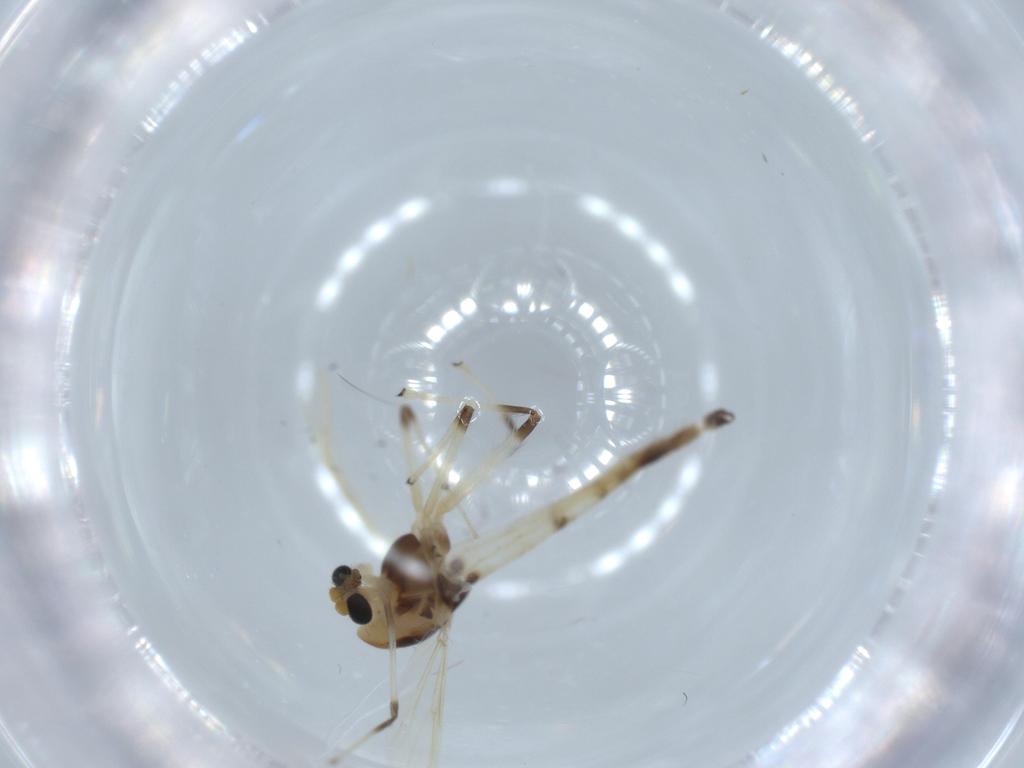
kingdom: Animalia
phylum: Arthropoda
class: Insecta
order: Diptera
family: Chironomidae
